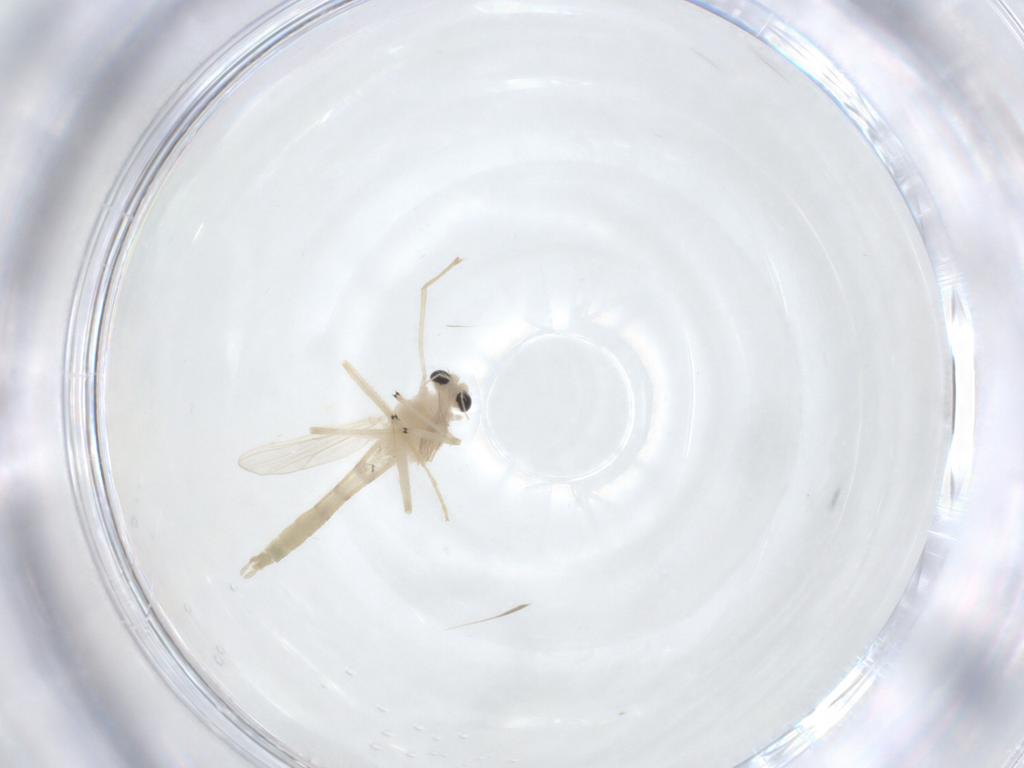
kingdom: Animalia
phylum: Arthropoda
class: Insecta
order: Diptera
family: Chironomidae
